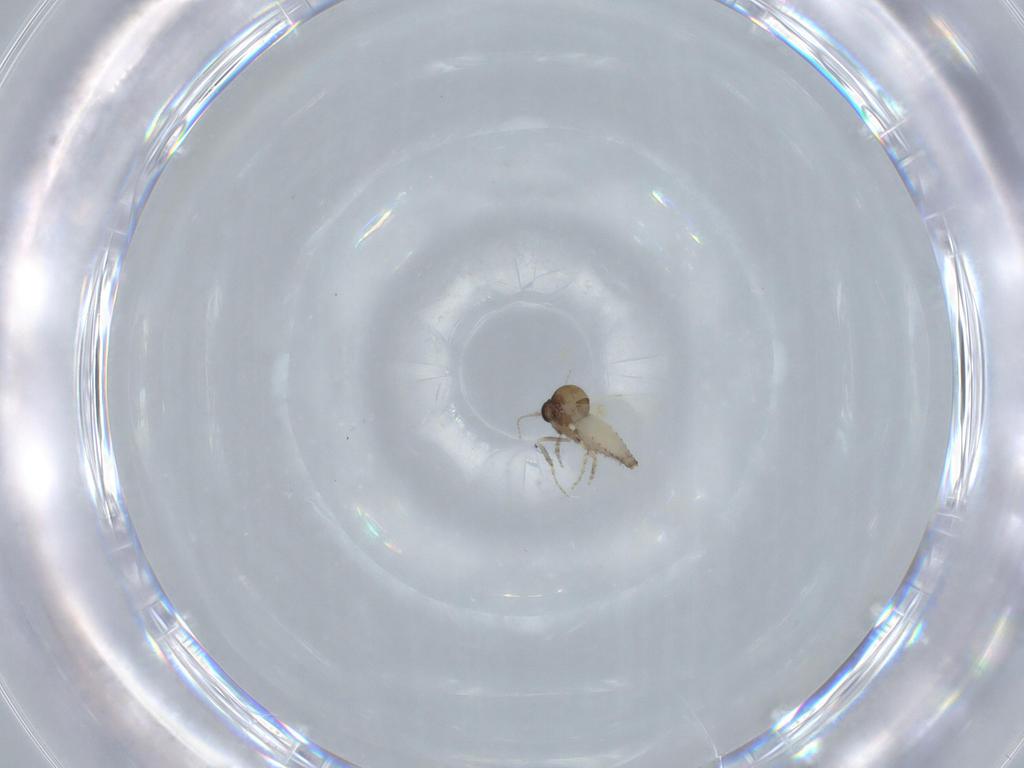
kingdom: Animalia
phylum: Arthropoda
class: Insecta
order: Diptera
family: Ceratopogonidae
